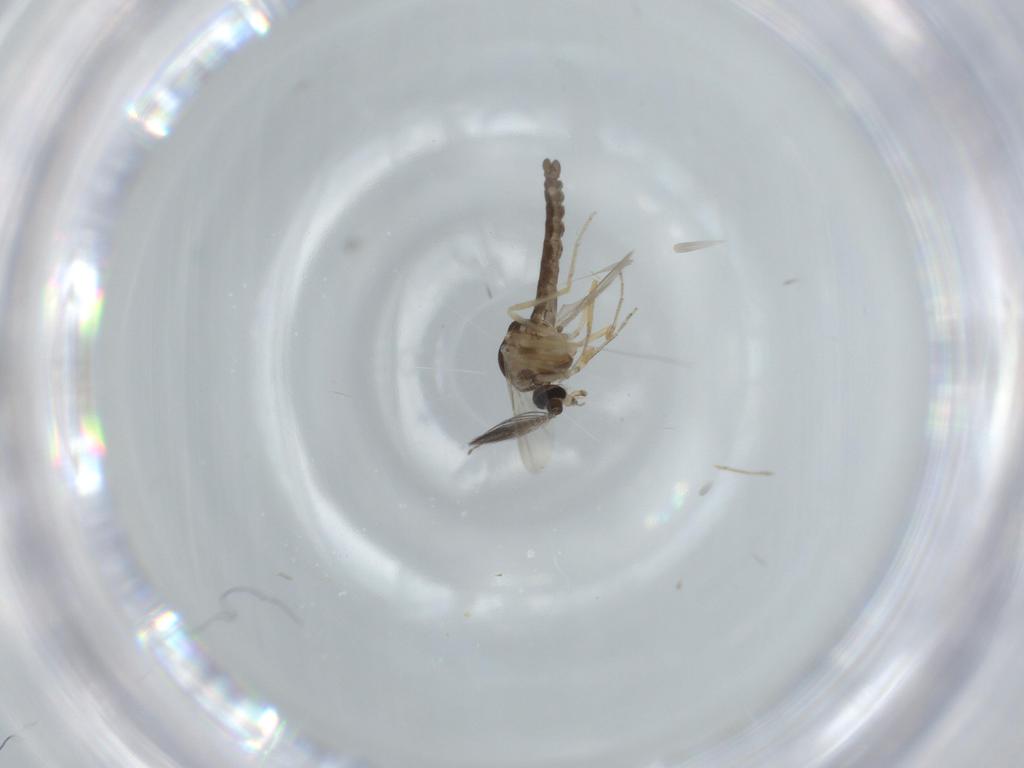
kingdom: Animalia
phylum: Arthropoda
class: Insecta
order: Diptera
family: Ceratopogonidae
